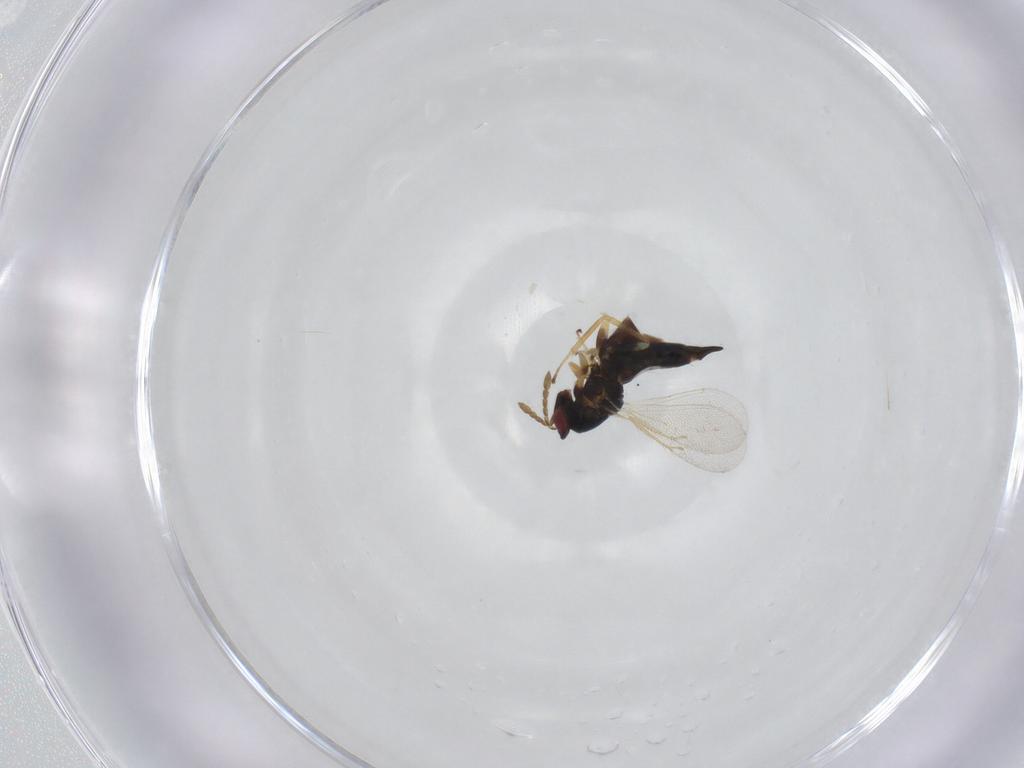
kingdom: Animalia
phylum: Arthropoda
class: Insecta
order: Hymenoptera
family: Eulophidae
